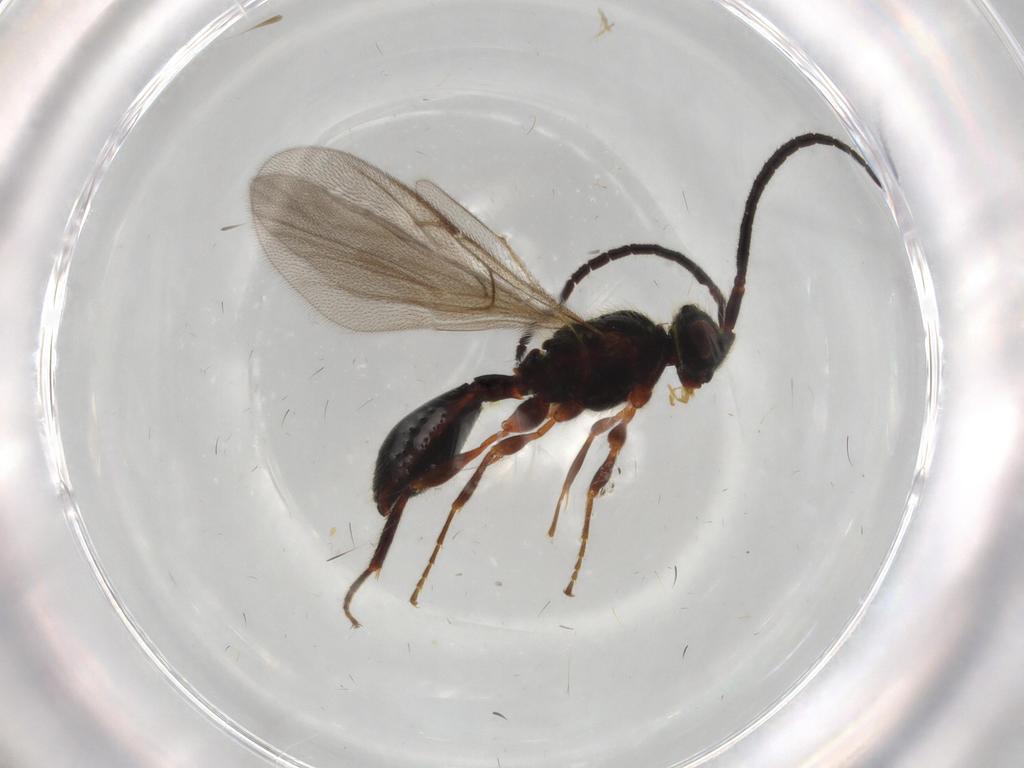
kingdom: Animalia
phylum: Arthropoda
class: Insecta
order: Hymenoptera
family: Diapriidae
